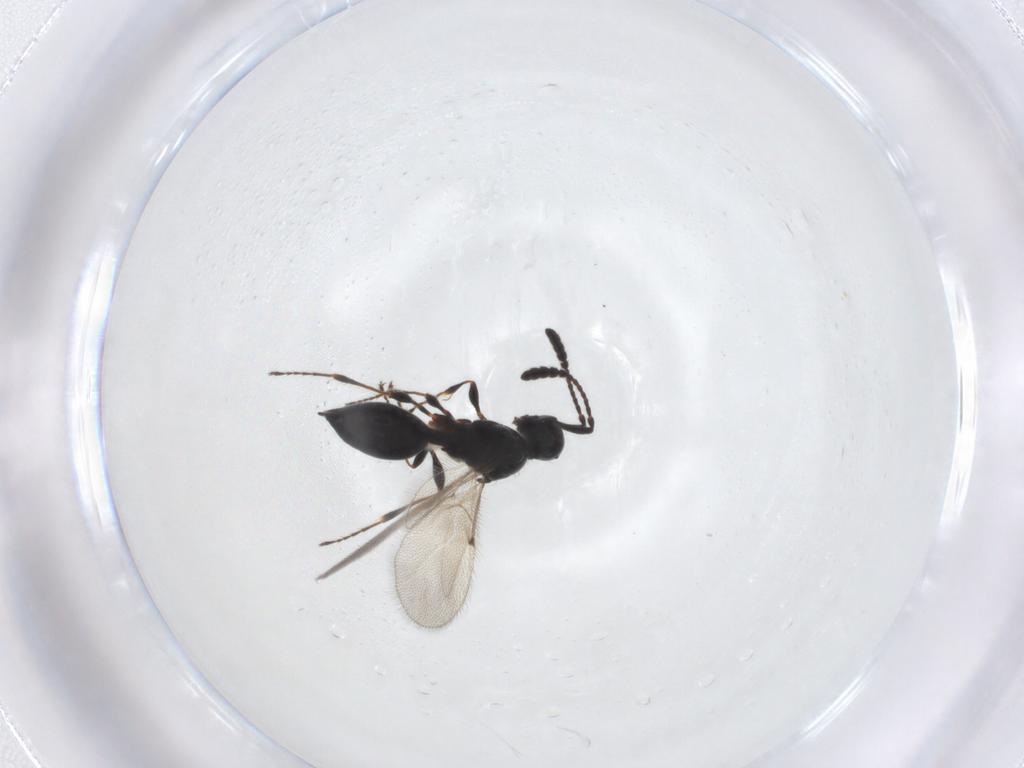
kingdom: Animalia
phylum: Arthropoda
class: Insecta
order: Hymenoptera
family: Diapriidae
